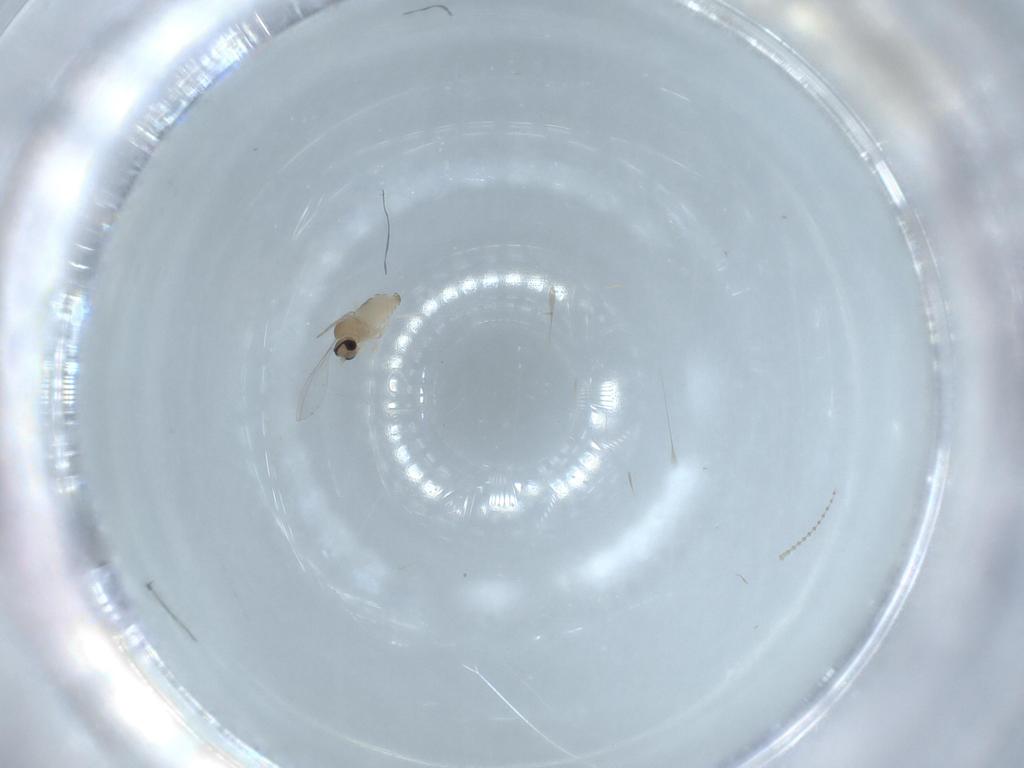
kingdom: Animalia
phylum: Arthropoda
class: Insecta
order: Diptera
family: Cecidomyiidae
